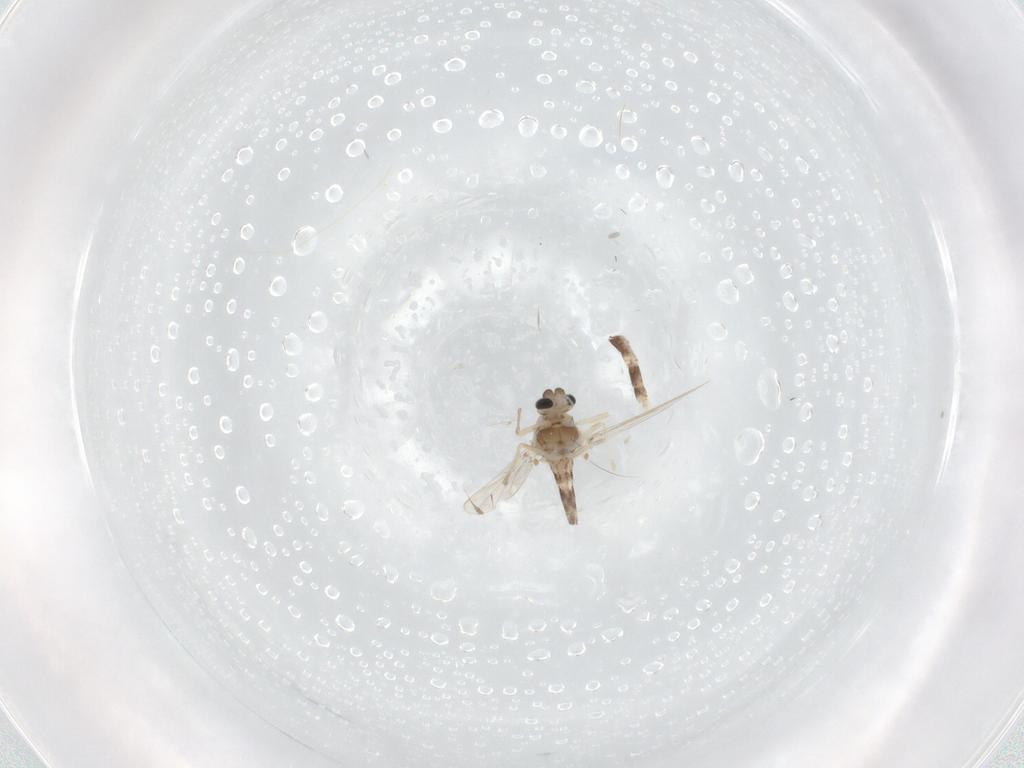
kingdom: Animalia
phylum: Arthropoda
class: Insecta
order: Diptera
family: Chironomidae
